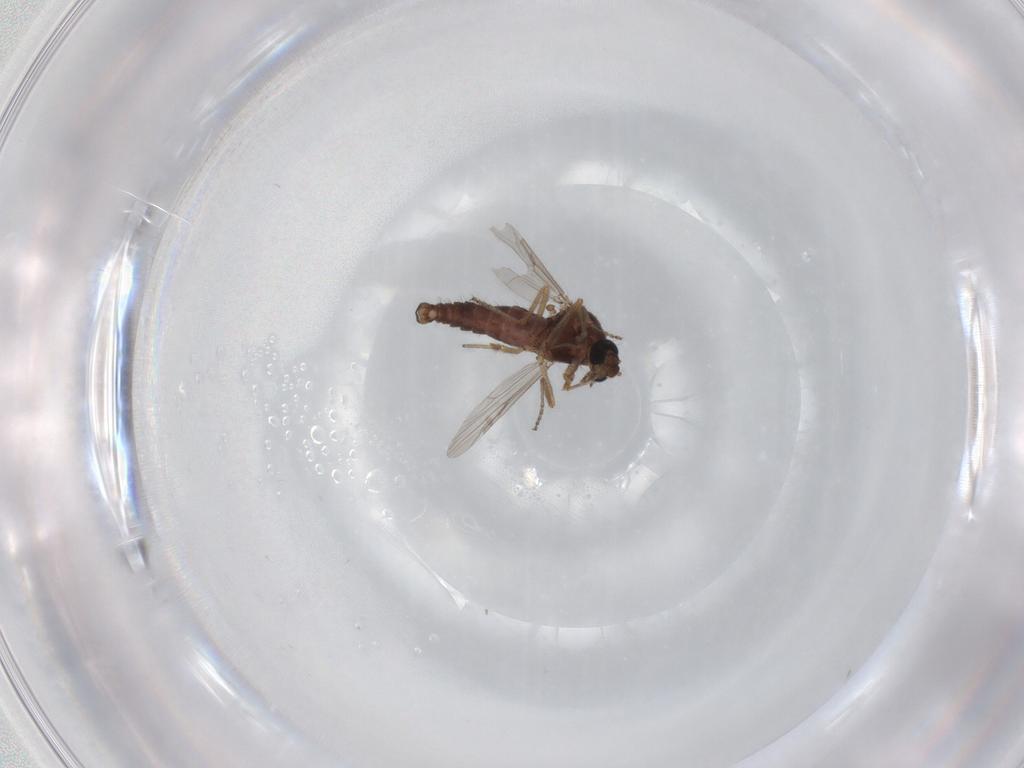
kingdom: Animalia
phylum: Arthropoda
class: Insecta
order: Diptera
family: Ceratopogonidae
